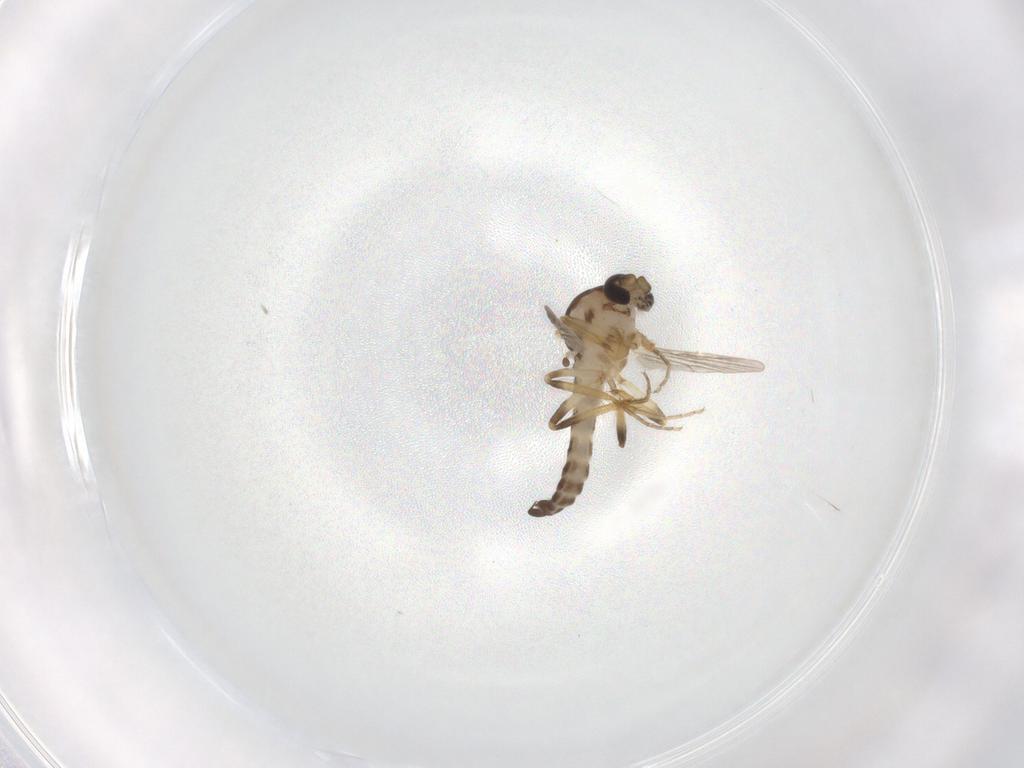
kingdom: Animalia
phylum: Arthropoda
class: Insecta
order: Diptera
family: Ceratopogonidae
